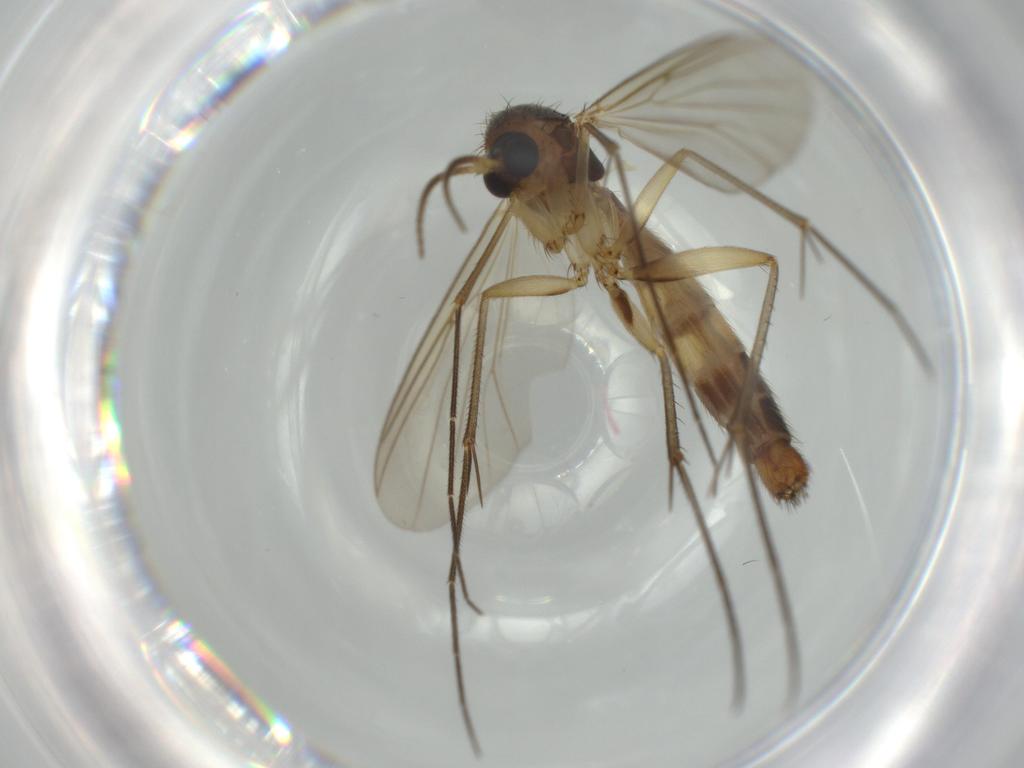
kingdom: Animalia
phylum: Arthropoda
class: Insecta
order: Diptera
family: Mycetophilidae
